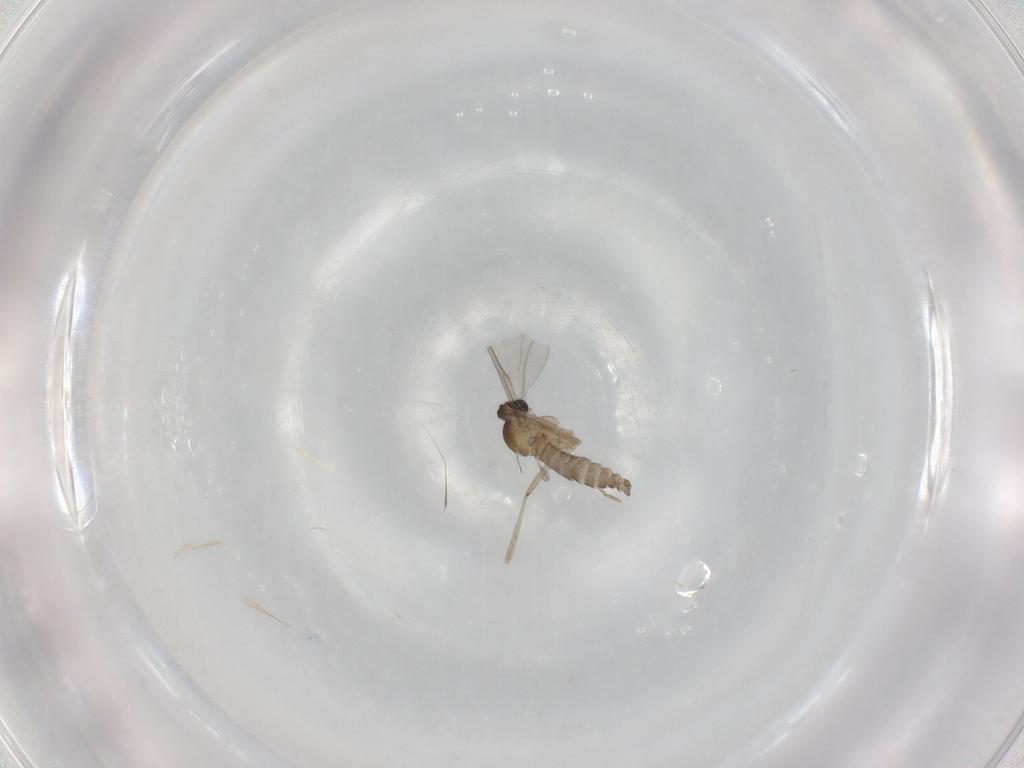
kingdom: Animalia
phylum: Arthropoda
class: Insecta
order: Diptera
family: Cecidomyiidae
